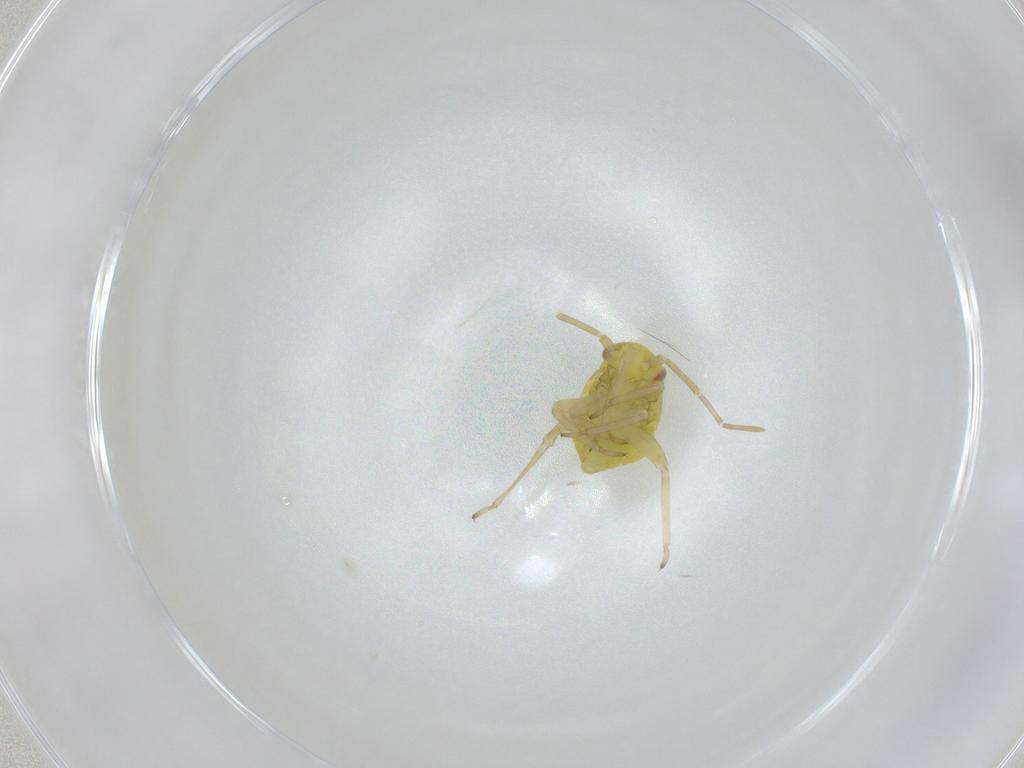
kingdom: Animalia
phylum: Arthropoda
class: Insecta
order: Hemiptera
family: Miridae
